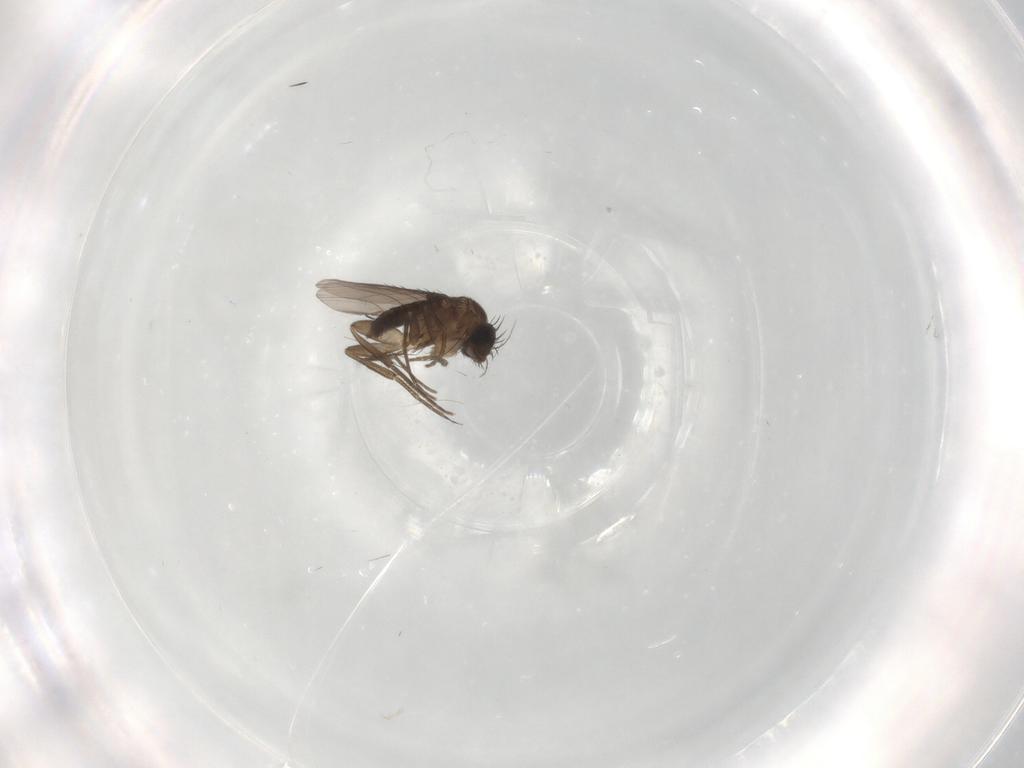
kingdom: Animalia
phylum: Arthropoda
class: Insecta
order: Diptera
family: Phoridae
